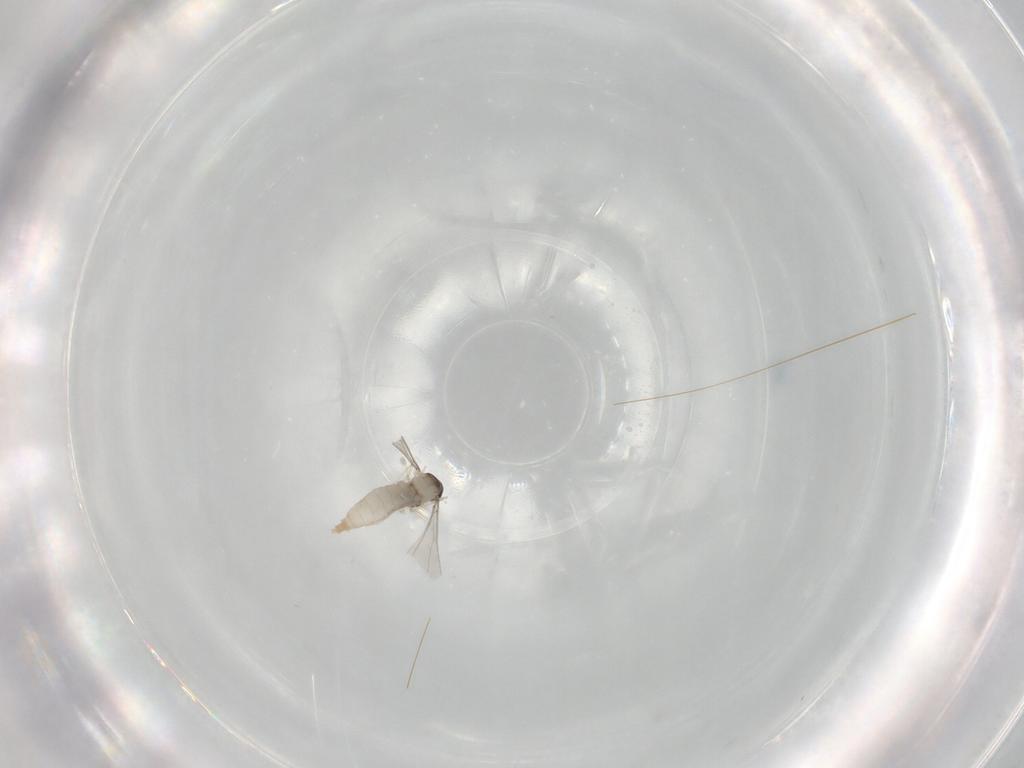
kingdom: Animalia
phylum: Arthropoda
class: Insecta
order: Diptera
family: Cecidomyiidae
